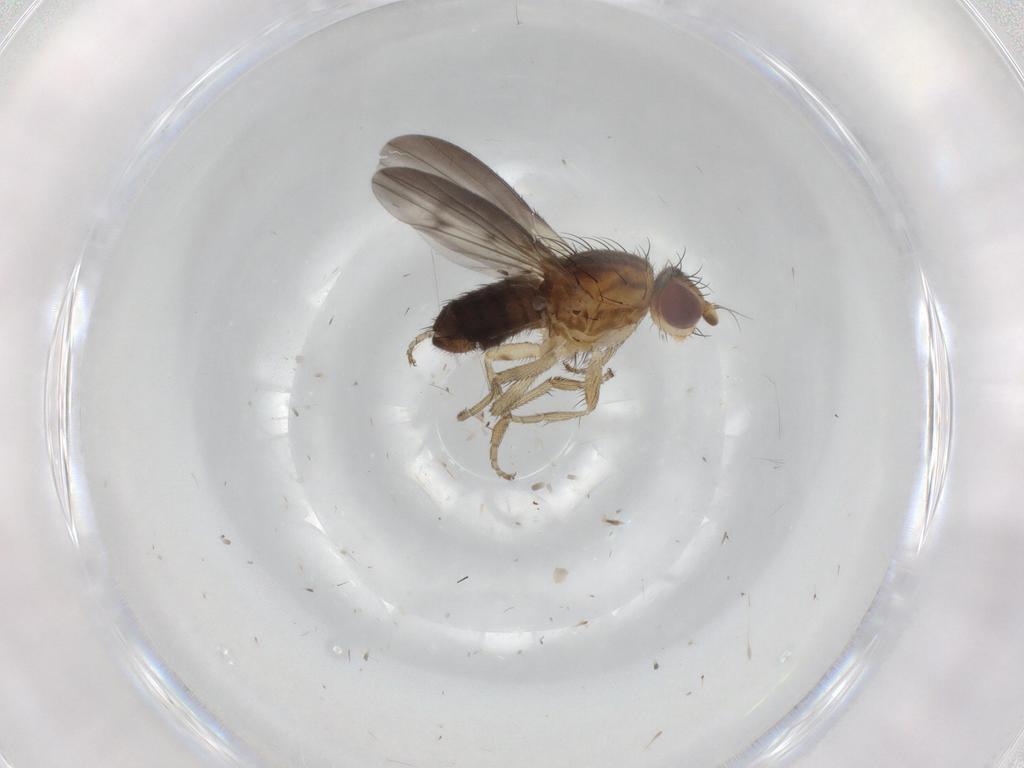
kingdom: Animalia
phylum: Arthropoda
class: Insecta
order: Diptera
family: Heleomyzidae
